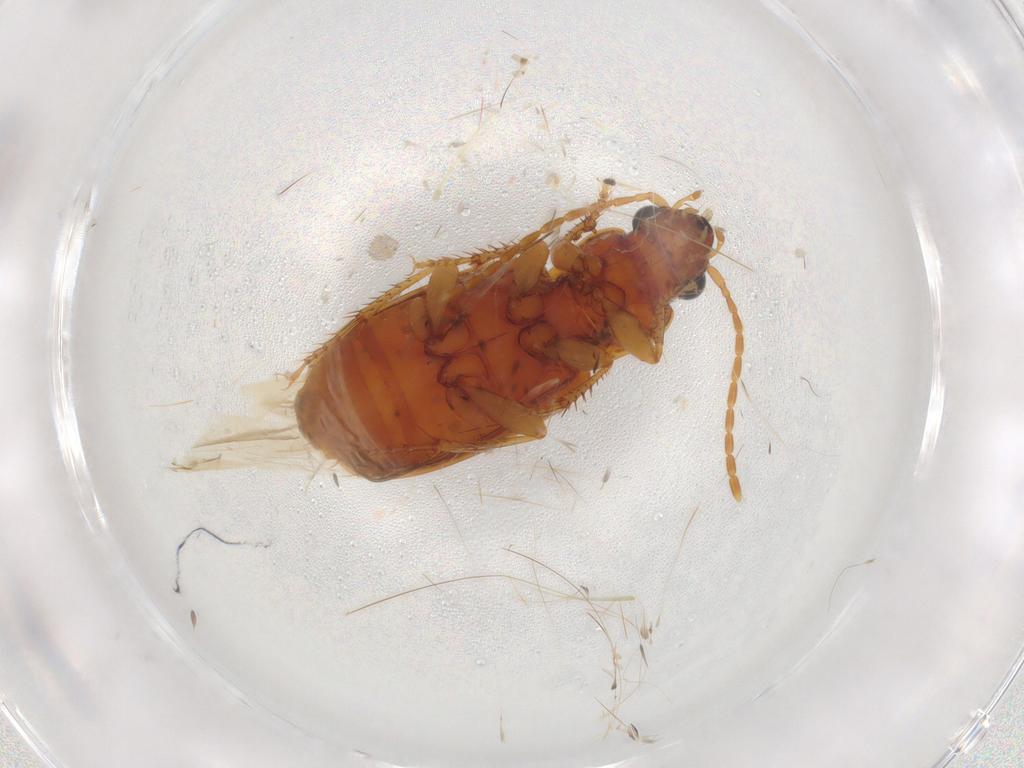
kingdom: Animalia
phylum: Arthropoda
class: Insecta
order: Coleoptera
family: Carabidae
